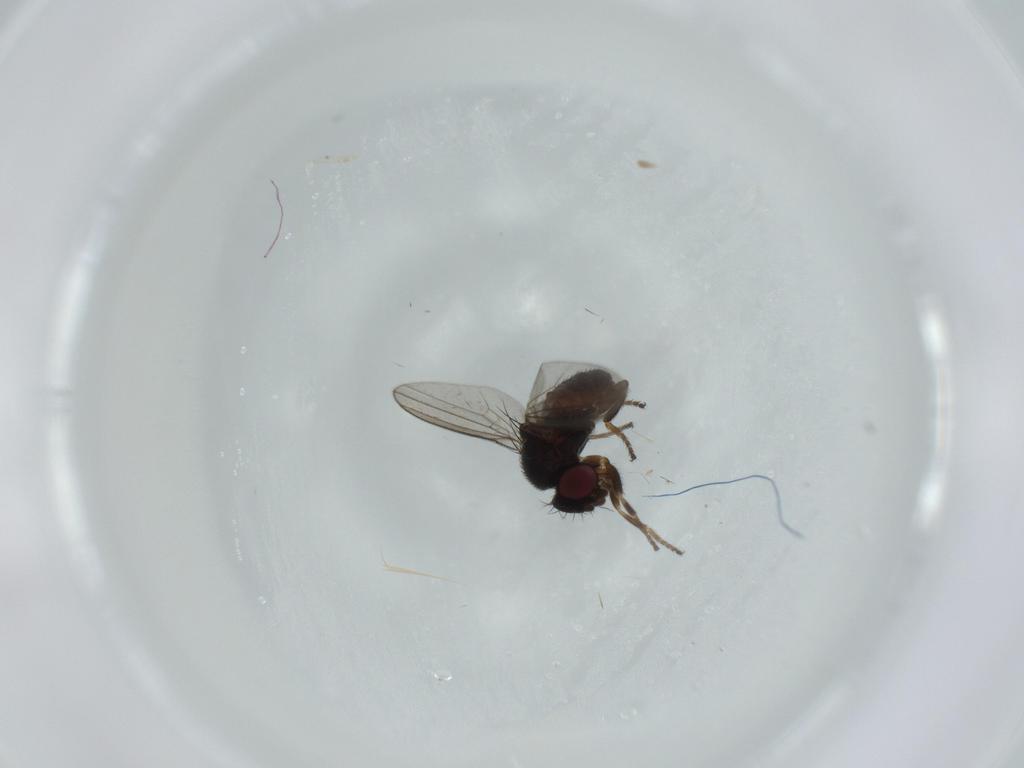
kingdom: Animalia
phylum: Arthropoda
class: Insecta
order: Diptera
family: Milichiidae
